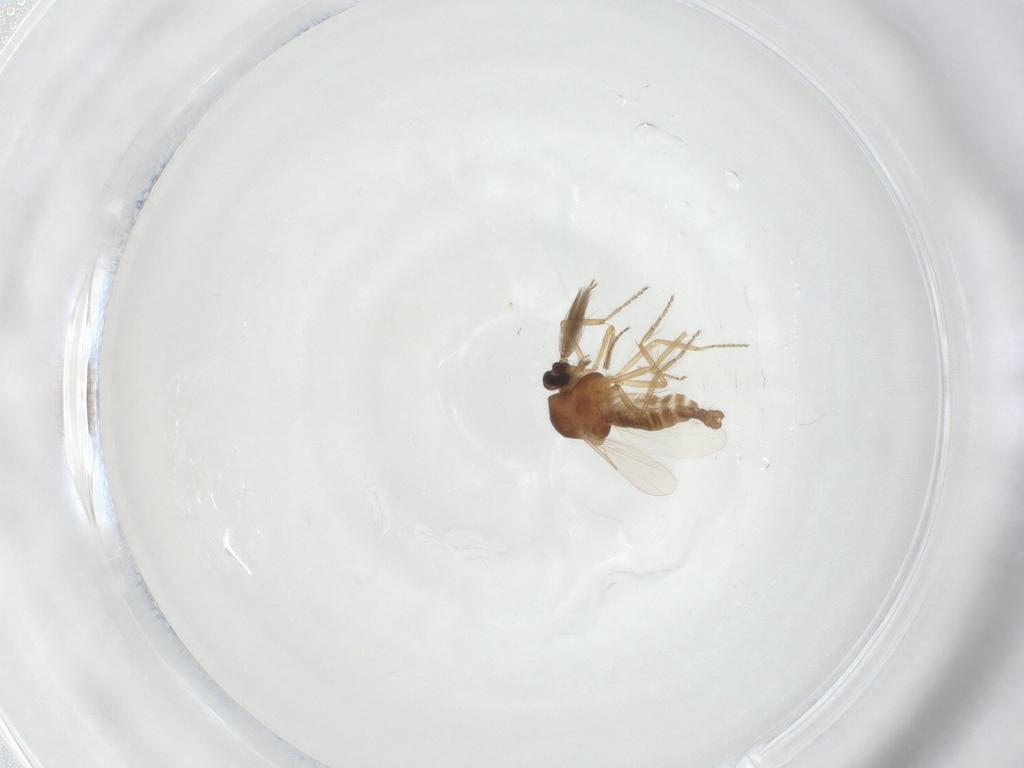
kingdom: Animalia
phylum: Arthropoda
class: Insecta
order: Diptera
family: Ceratopogonidae
